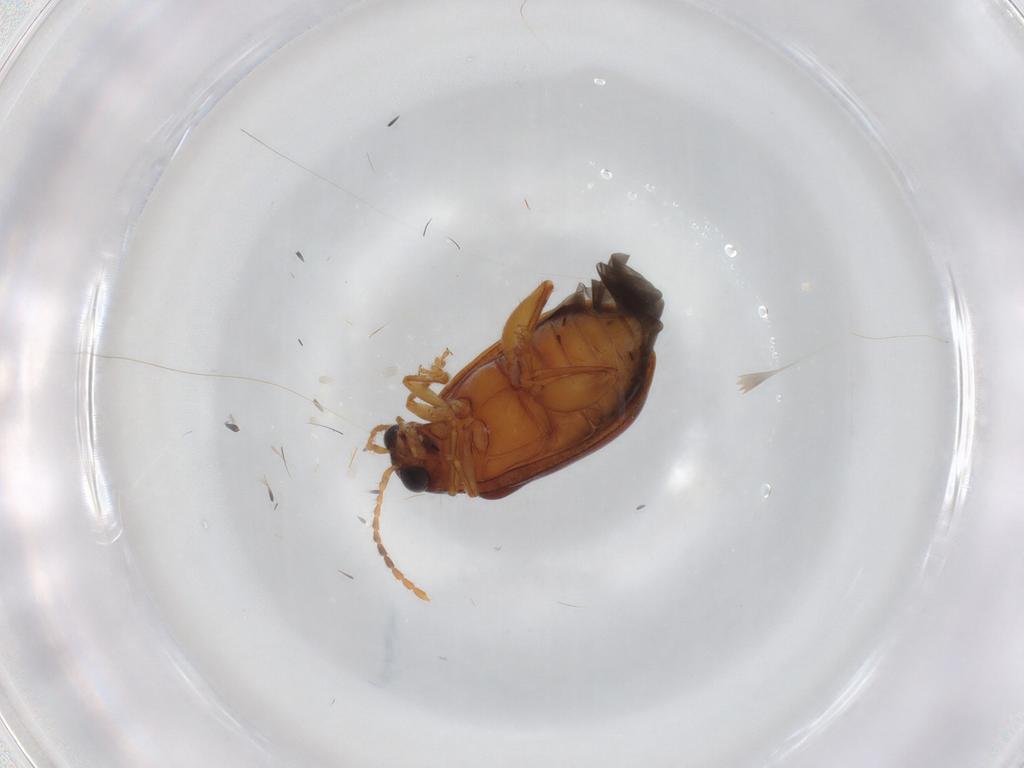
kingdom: Animalia
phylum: Arthropoda
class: Insecta
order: Coleoptera
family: Chrysomelidae
